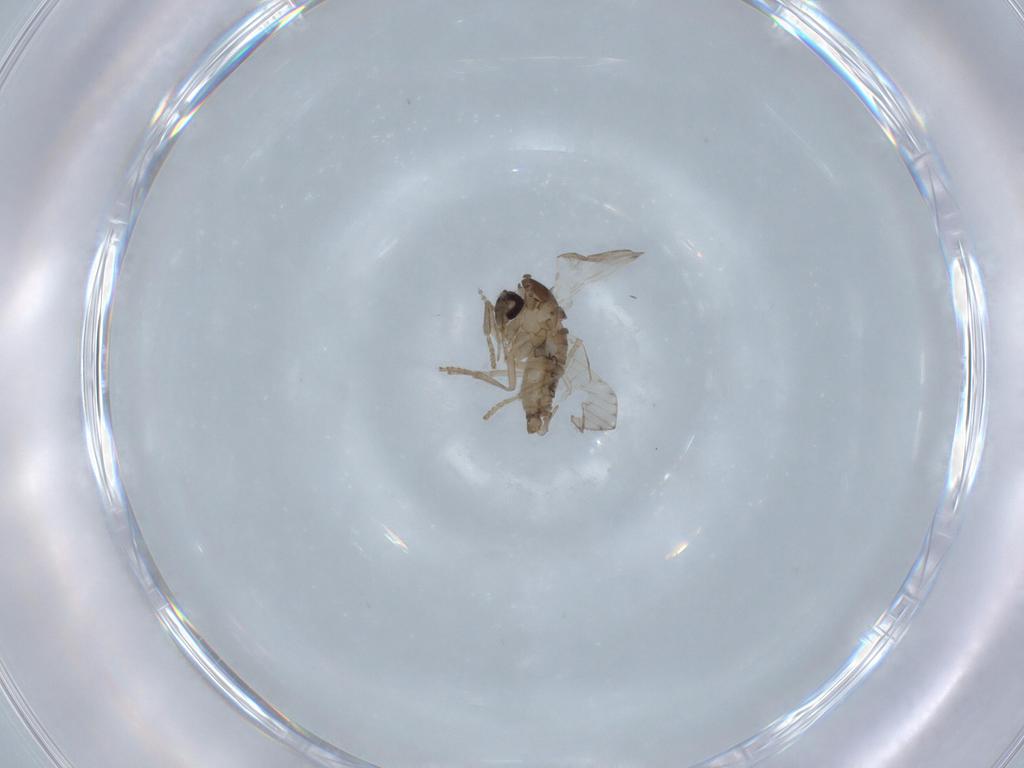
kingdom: Animalia
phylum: Arthropoda
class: Insecta
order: Diptera
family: Psychodidae
